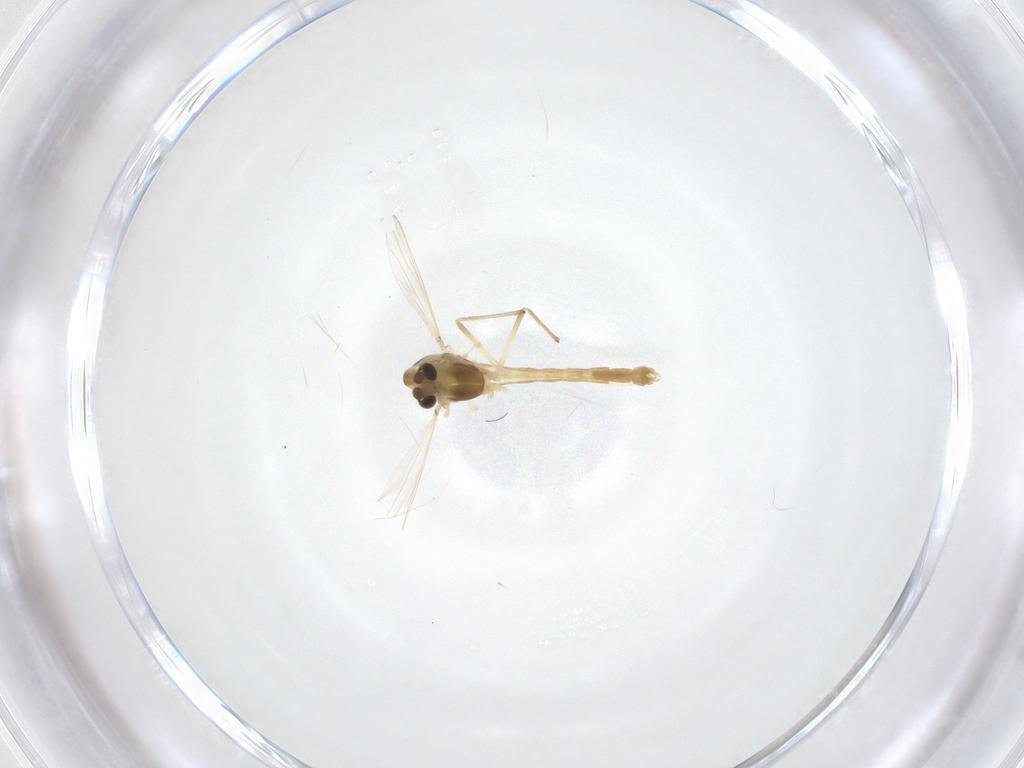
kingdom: Animalia
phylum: Arthropoda
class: Insecta
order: Diptera
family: Chironomidae
